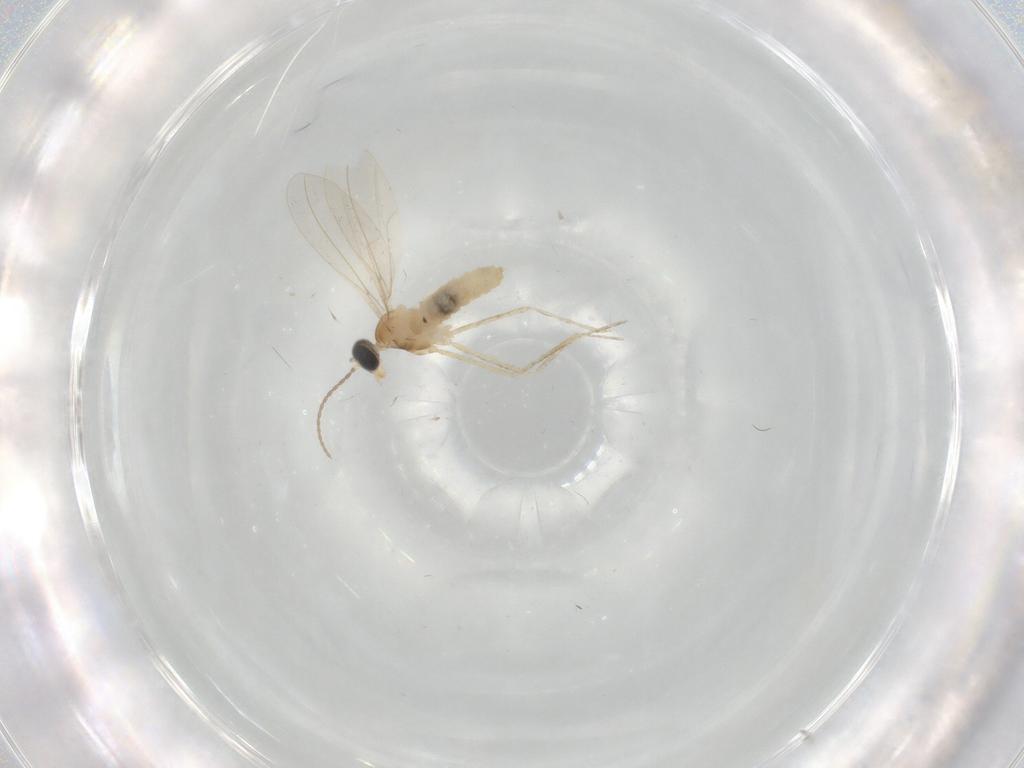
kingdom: Animalia
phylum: Arthropoda
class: Insecta
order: Diptera
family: Cecidomyiidae
